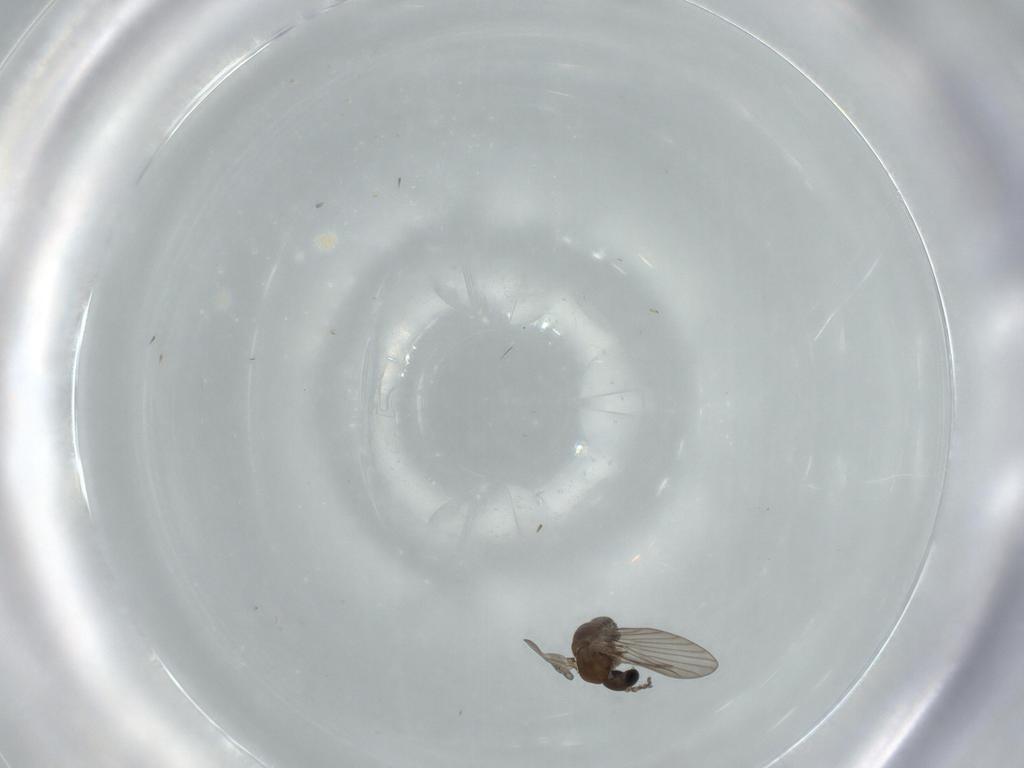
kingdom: Animalia
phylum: Arthropoda
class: Insecta
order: Diptera
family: Psychodidae
